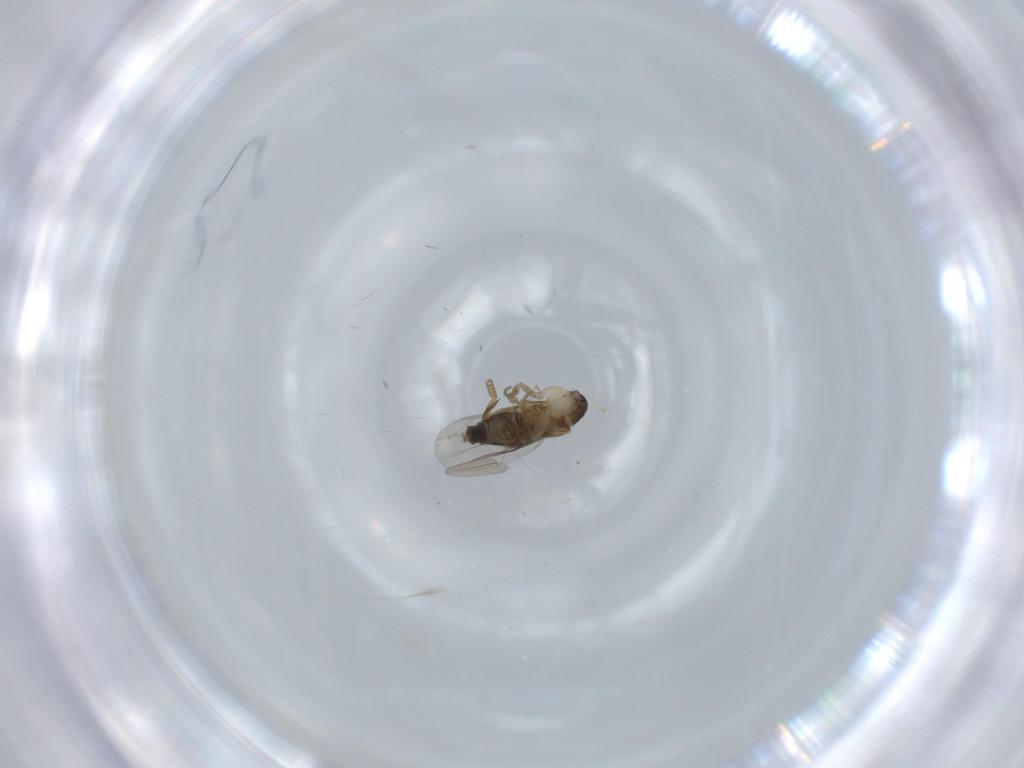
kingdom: Animalia
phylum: Arthropoda
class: Insecta
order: Diptera
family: Phoridae
